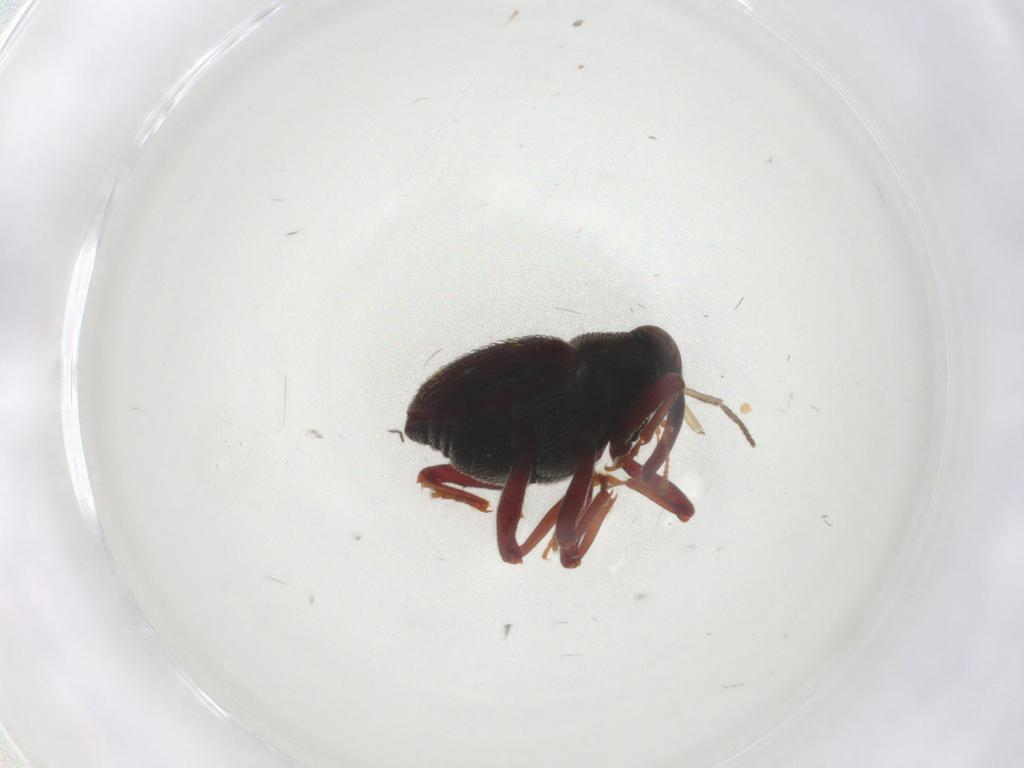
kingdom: Animalia
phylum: Arthropoda
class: Insecta
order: Coleoptera
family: Curculionidae
